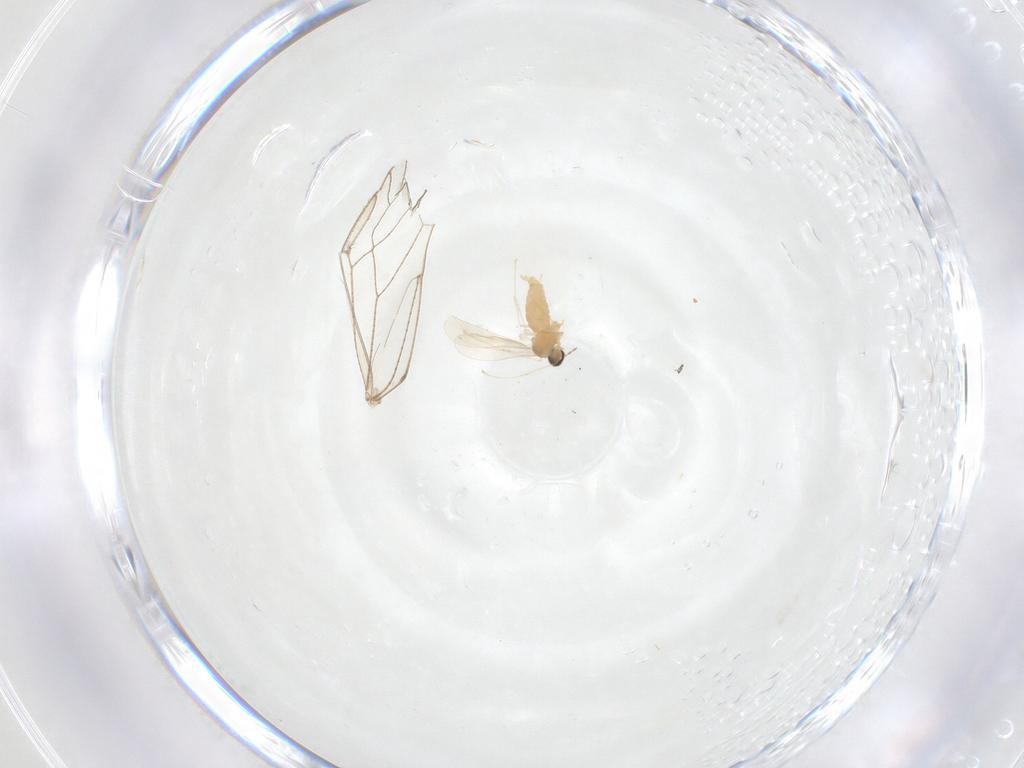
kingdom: Animalia
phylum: Arthropoda
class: Insecta
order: Diptera
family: Cecidomyiidae
